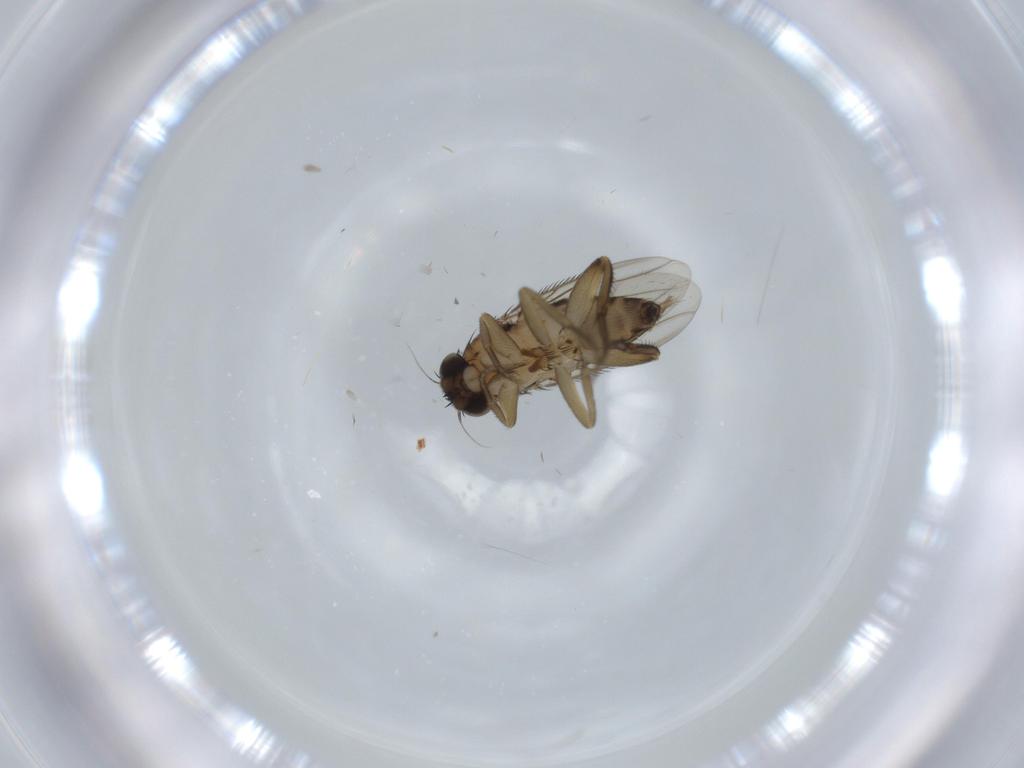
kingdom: Animalia
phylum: Arthropoda
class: Insecta
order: Diptera
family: Phoridae
